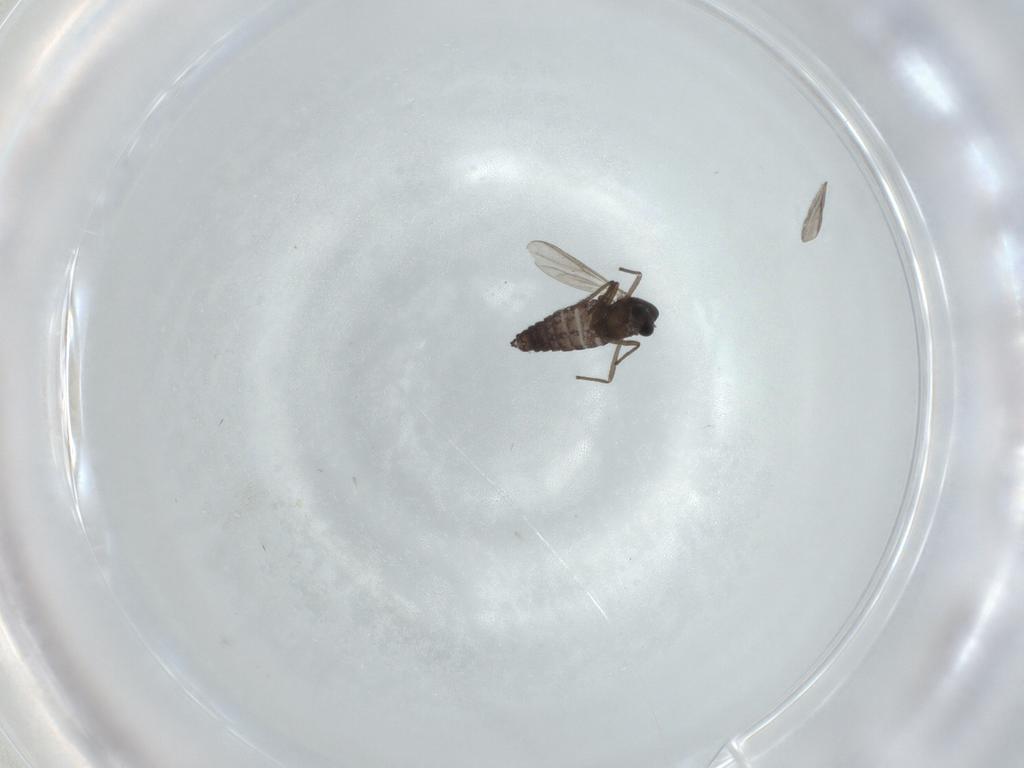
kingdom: Animalia
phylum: Arthropoda
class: Insecta
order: Diptera
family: Chironomidae
